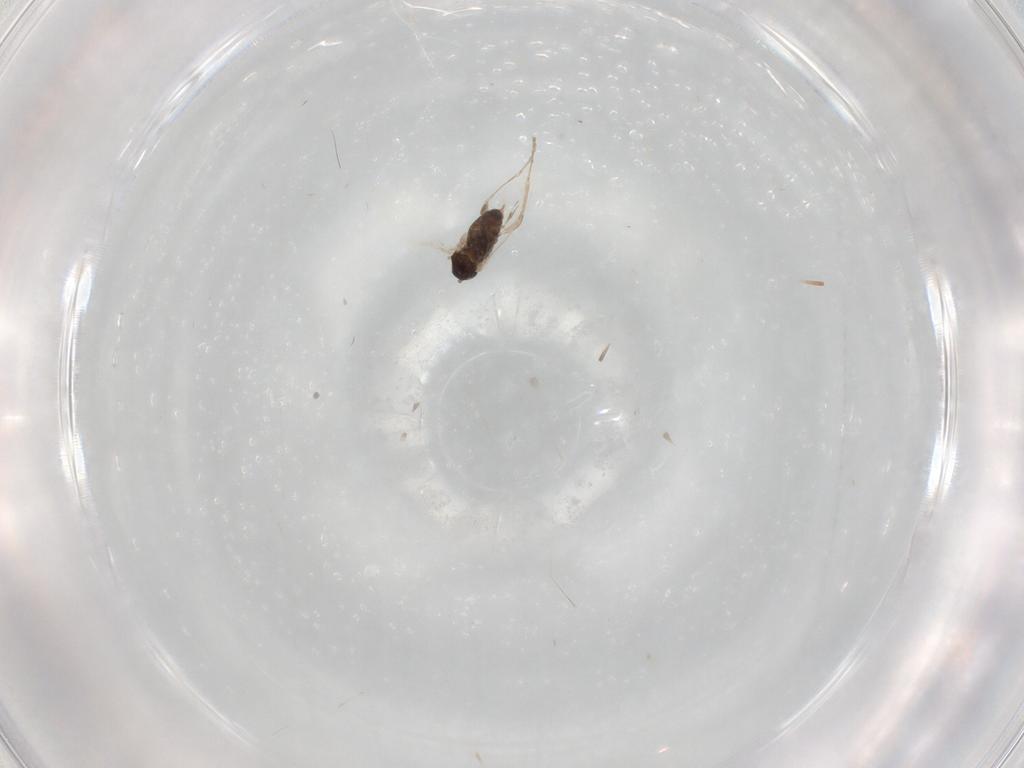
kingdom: Animalia
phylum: Arthropoda
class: Insecta
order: Diptera
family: Cecidomyiidae
